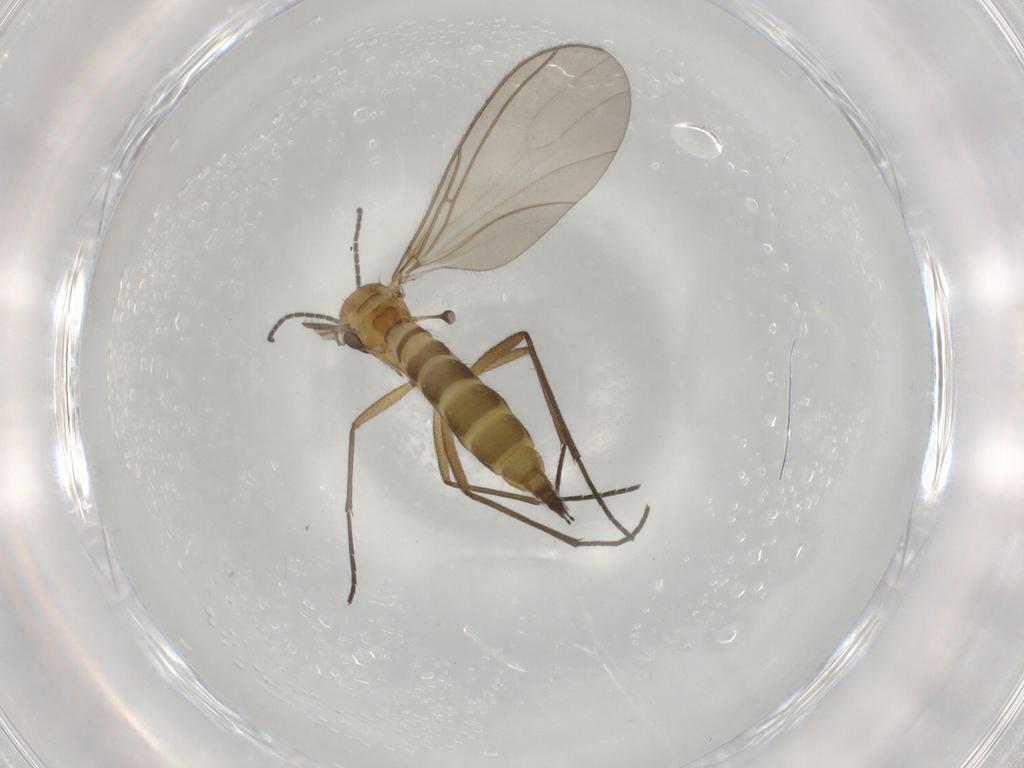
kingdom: Animalia
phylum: Arthropoda
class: Insecta
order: Diptera
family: Sciaridae
